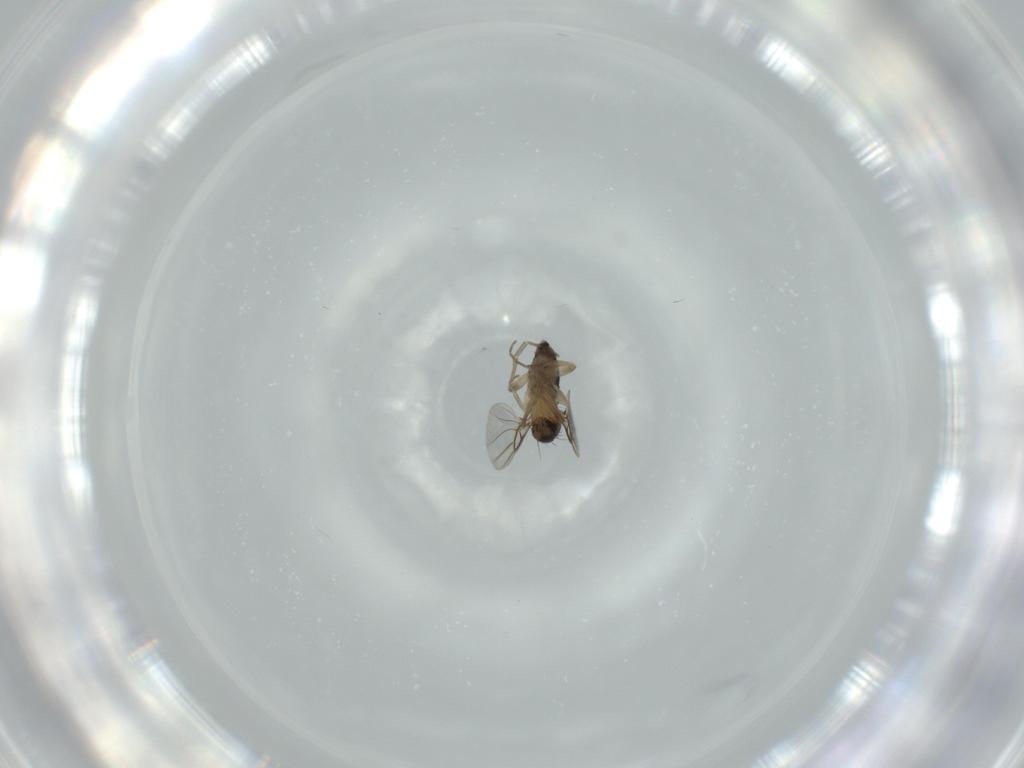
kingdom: Animalia
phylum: Arthropoda
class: Insecta
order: Diptera
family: Phoridae
